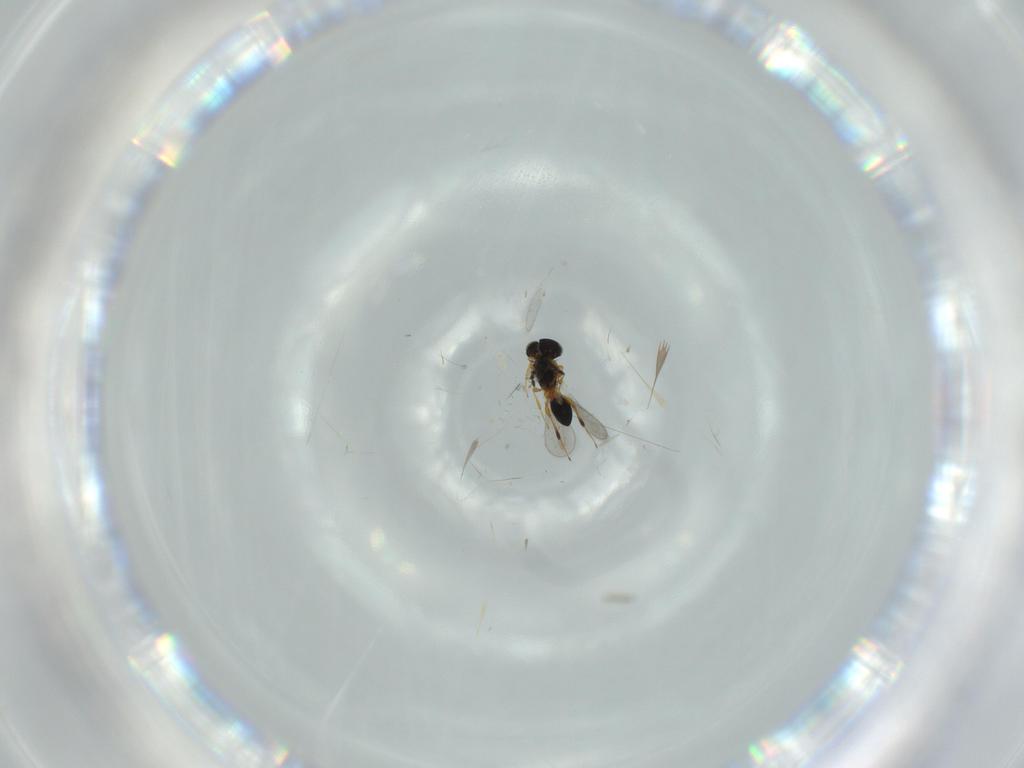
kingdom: Animalia
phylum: Arthropoda
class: Insecta
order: Hymenoptera
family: Platygastridae
